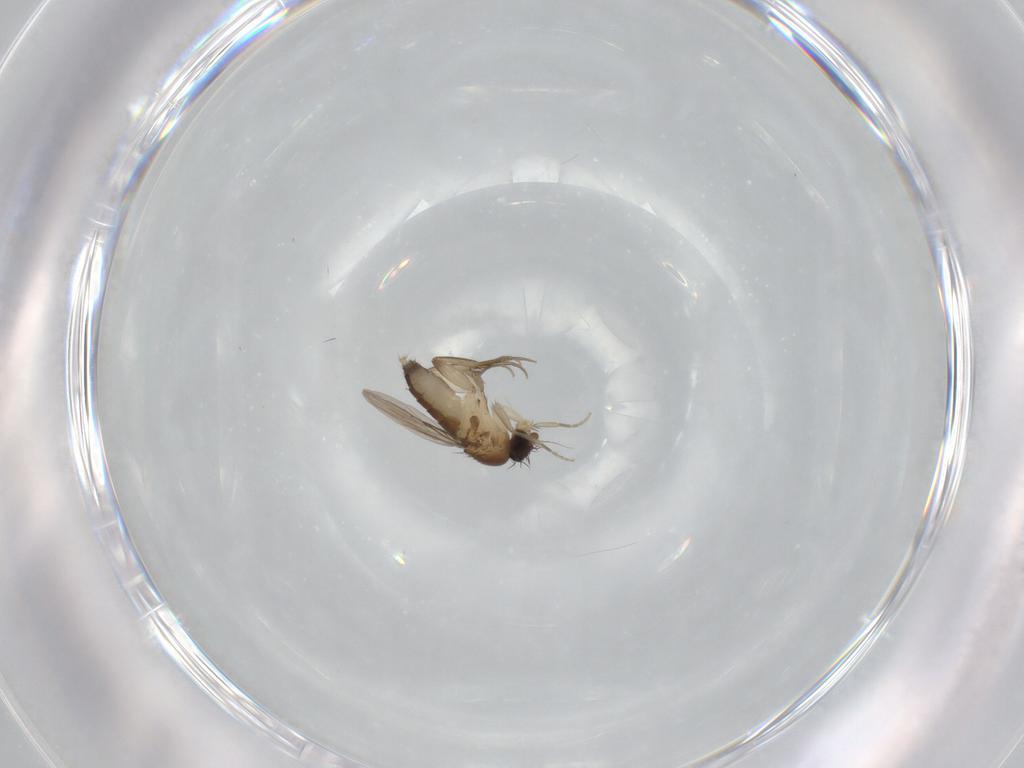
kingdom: Animalia
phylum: Arthropoda
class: Insecta
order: Diptera
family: Phoridae
